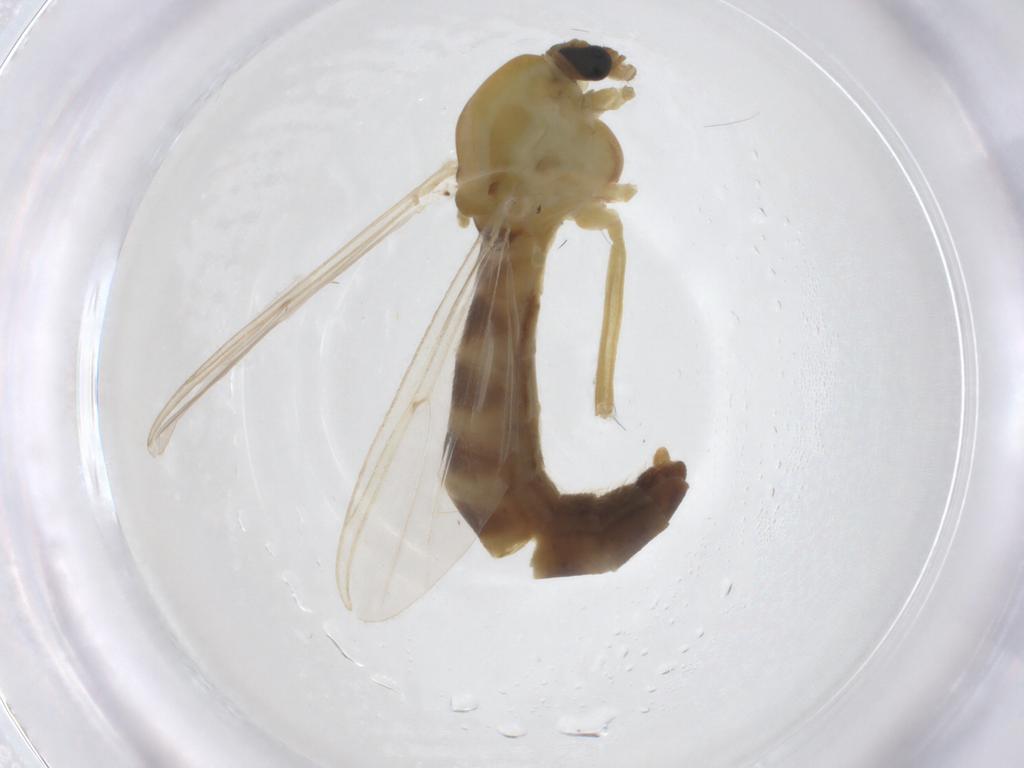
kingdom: Animalia
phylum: Arthropoda
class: Insecta
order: Diptera
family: Chironomidae
